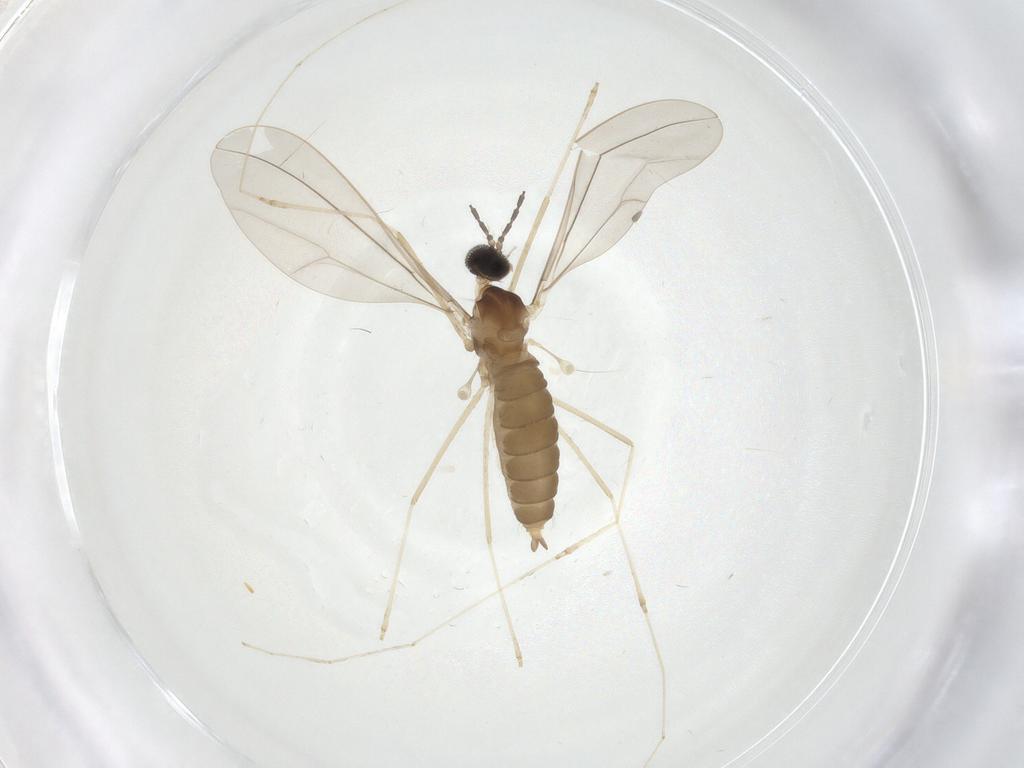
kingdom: Animalia
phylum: Arthropoda
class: Insecta
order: Diptera
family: Cecidomyiidae
